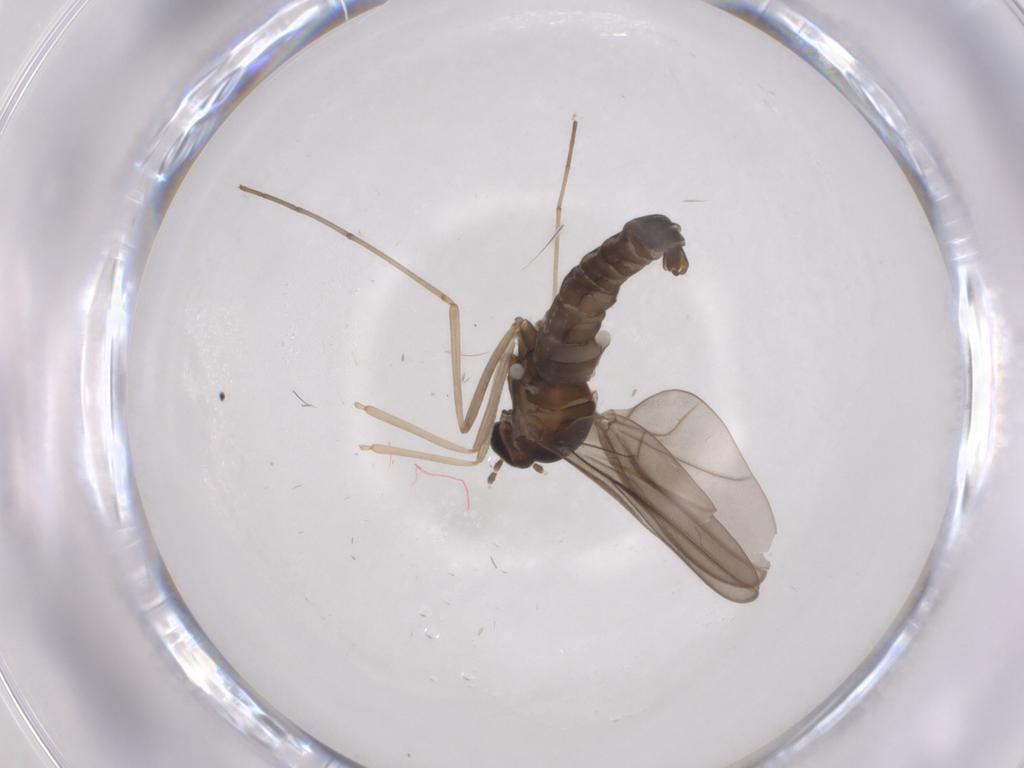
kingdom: Animalia
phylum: Arthropoda
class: Insecta
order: Diptera
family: Cecidomyiidae
